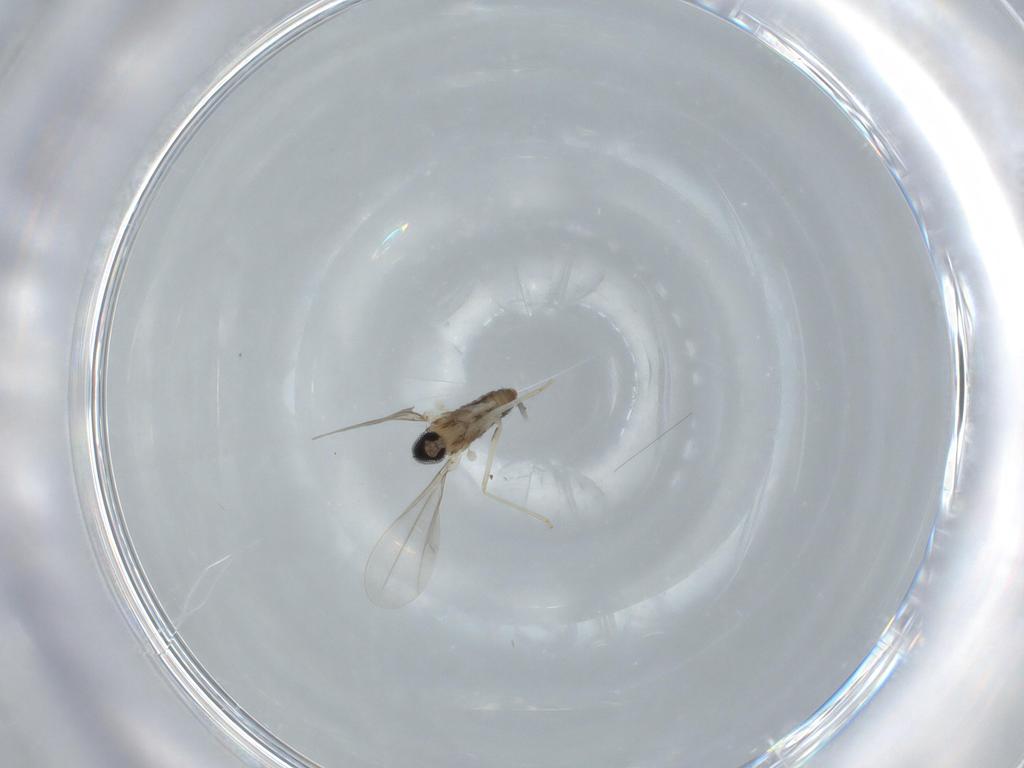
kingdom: Animalia
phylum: Arthropoda
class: Insecta
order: Diptera
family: Cecidomyiidae
